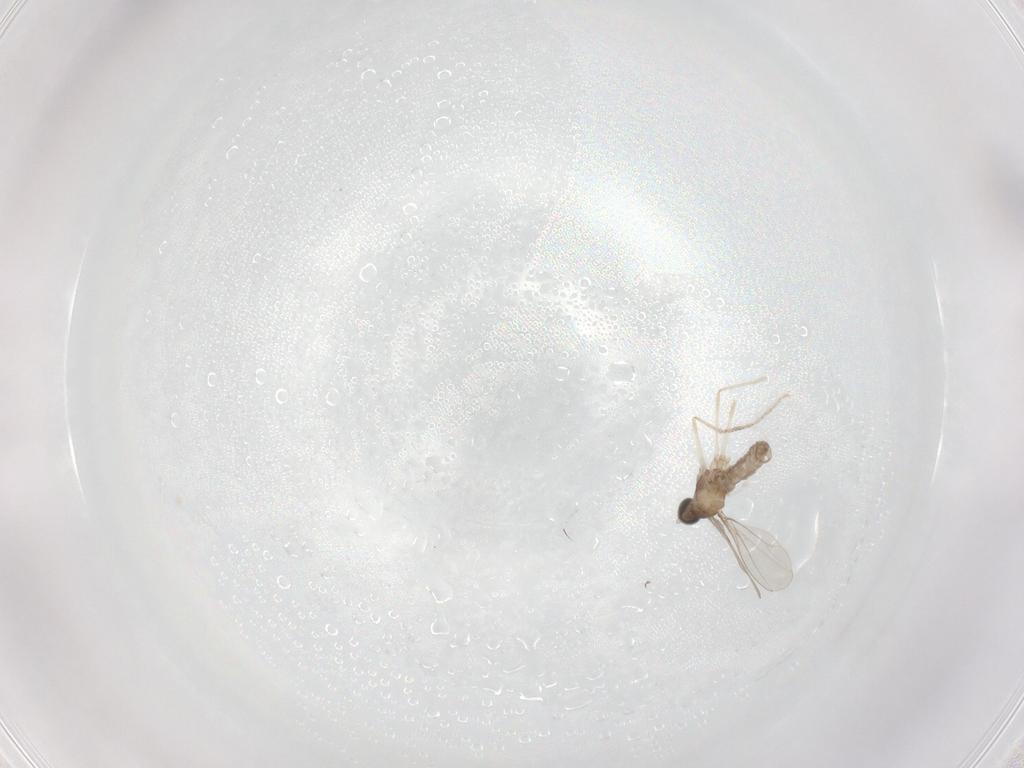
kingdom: Animalia
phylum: Arthropoda
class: Insecta
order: Diptera
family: Cecidomyiidae
